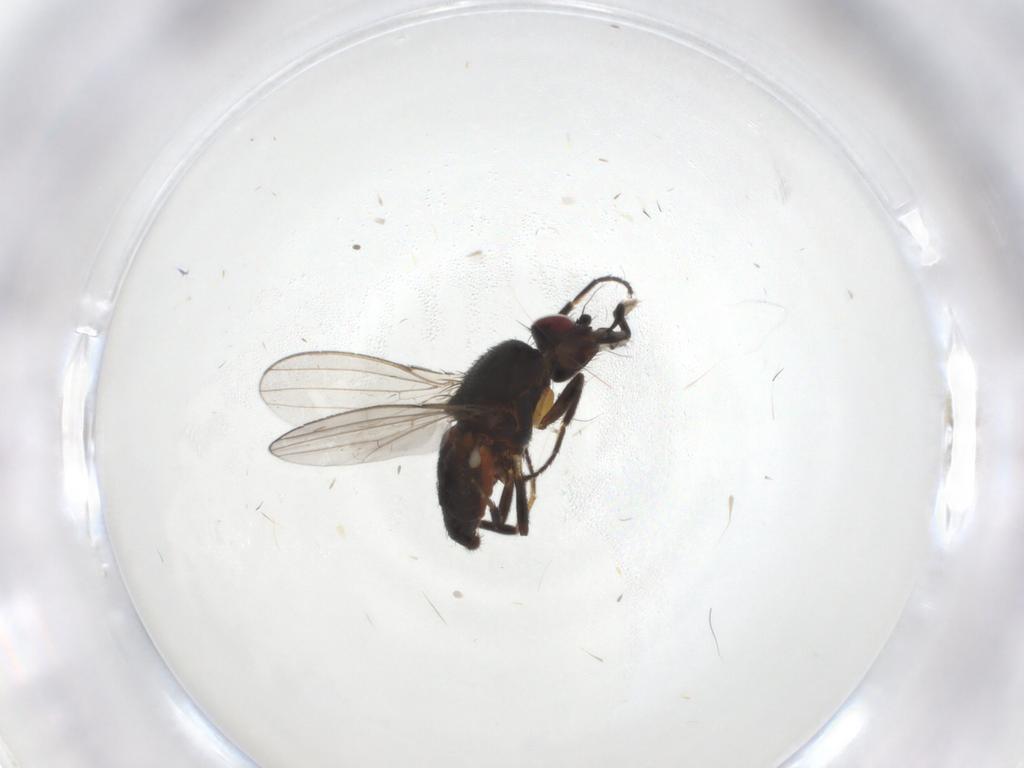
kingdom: Animalia
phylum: Arthropoda
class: Insecta
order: Diptera
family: Milichiidae
